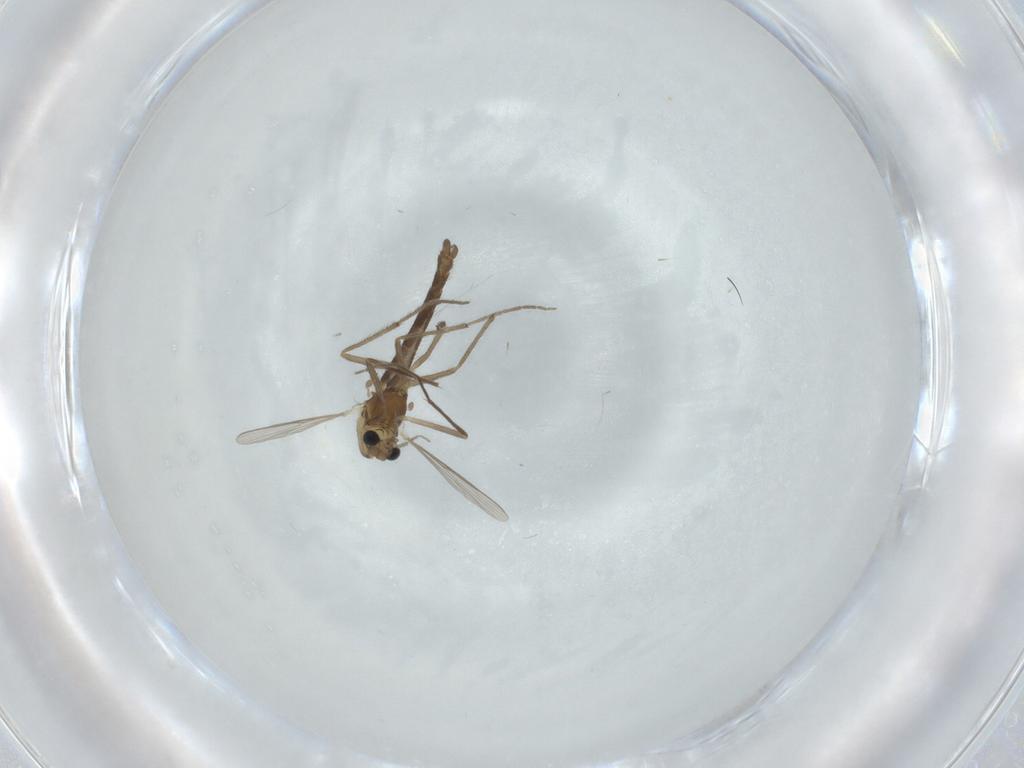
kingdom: Animalia
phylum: Arthropoda
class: Insecta
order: Diptera
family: Chironomidae
